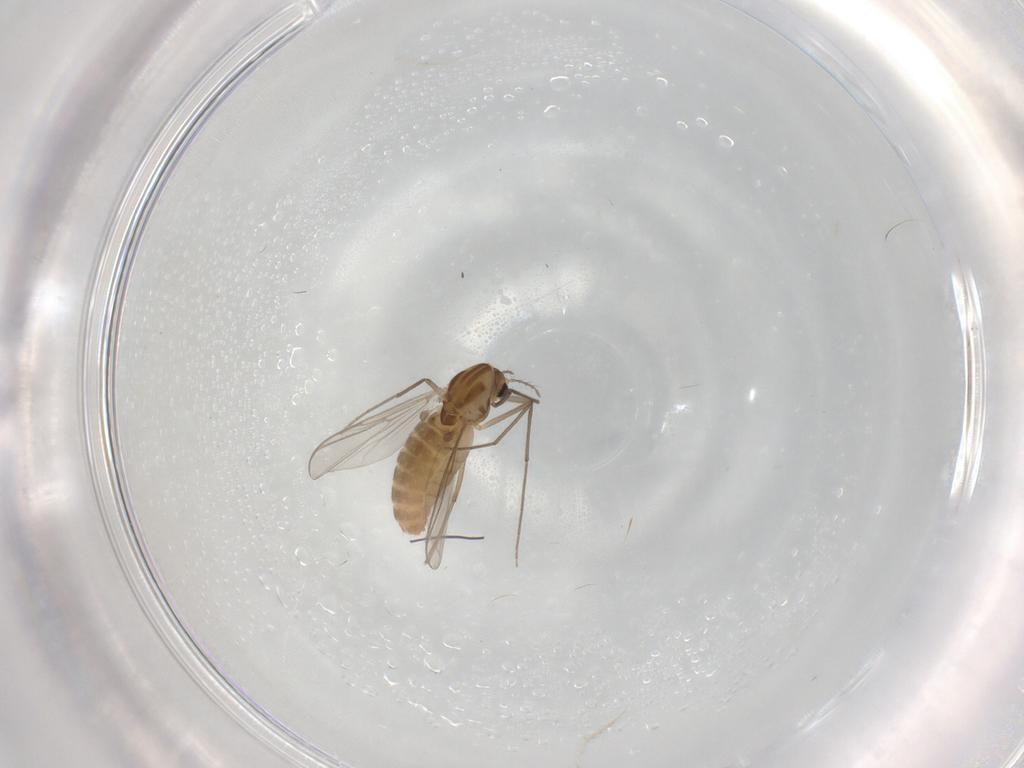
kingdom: Animalia
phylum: Arthropoda
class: Insecta
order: Diptera
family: Chironomidae
